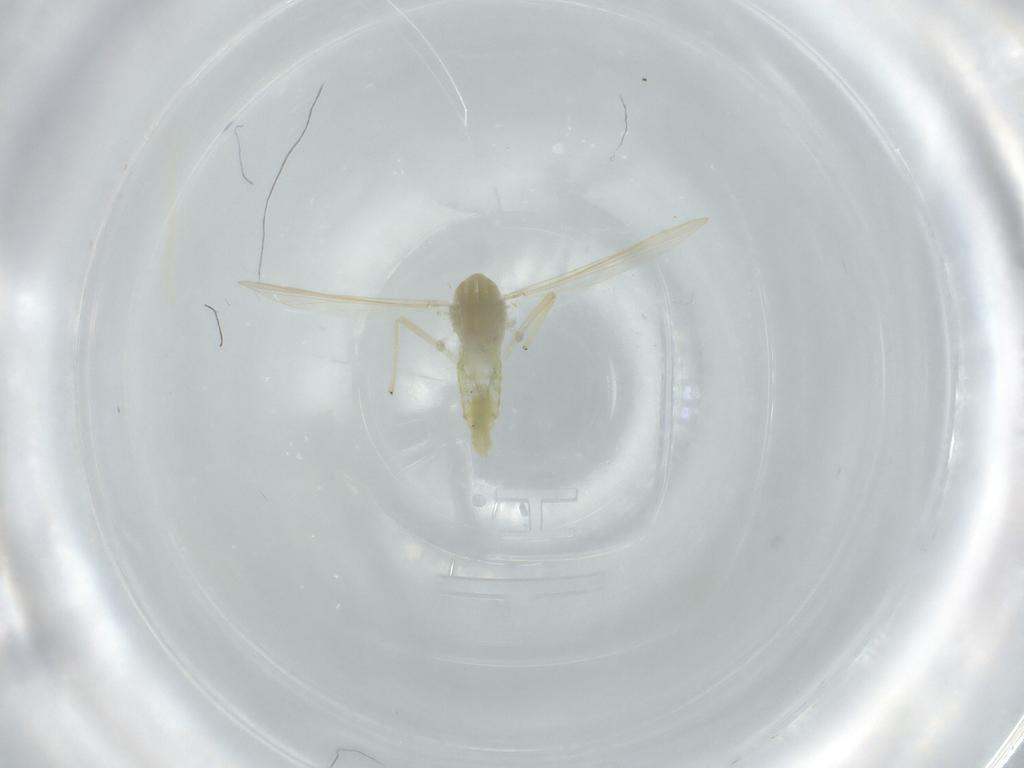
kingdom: Animalia
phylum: Arthropoda
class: Insecta
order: Diptera
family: Chironomidae
